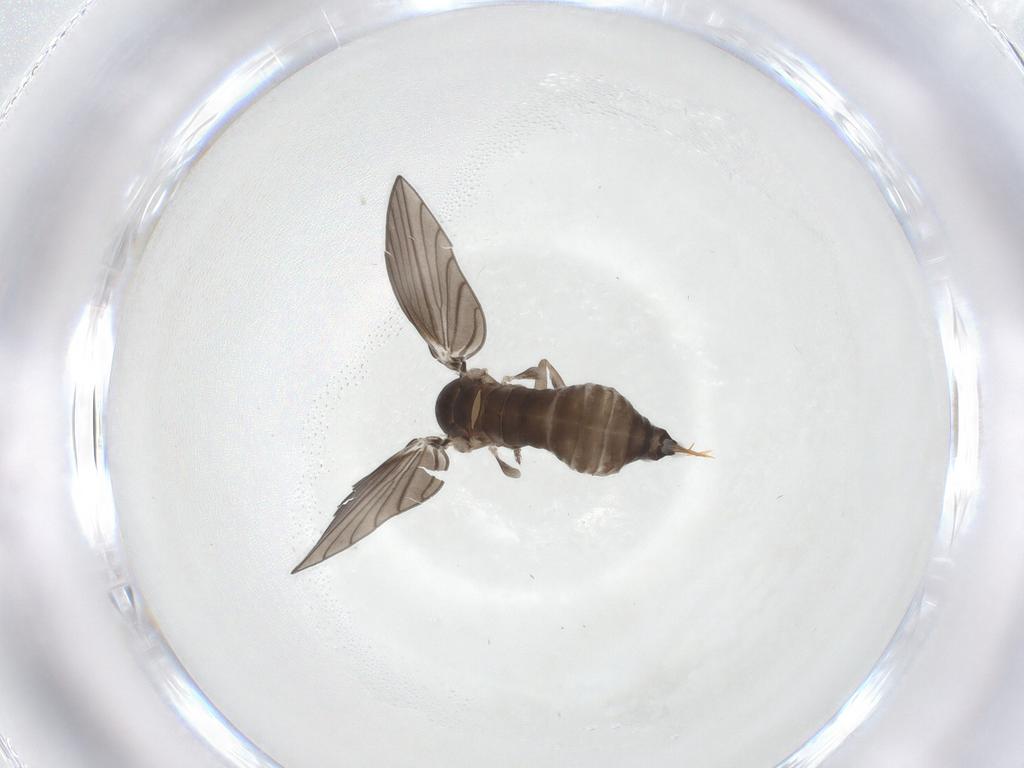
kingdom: Animalia
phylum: Arthropoda
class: Insecta
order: Diptera
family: Psychodidae
